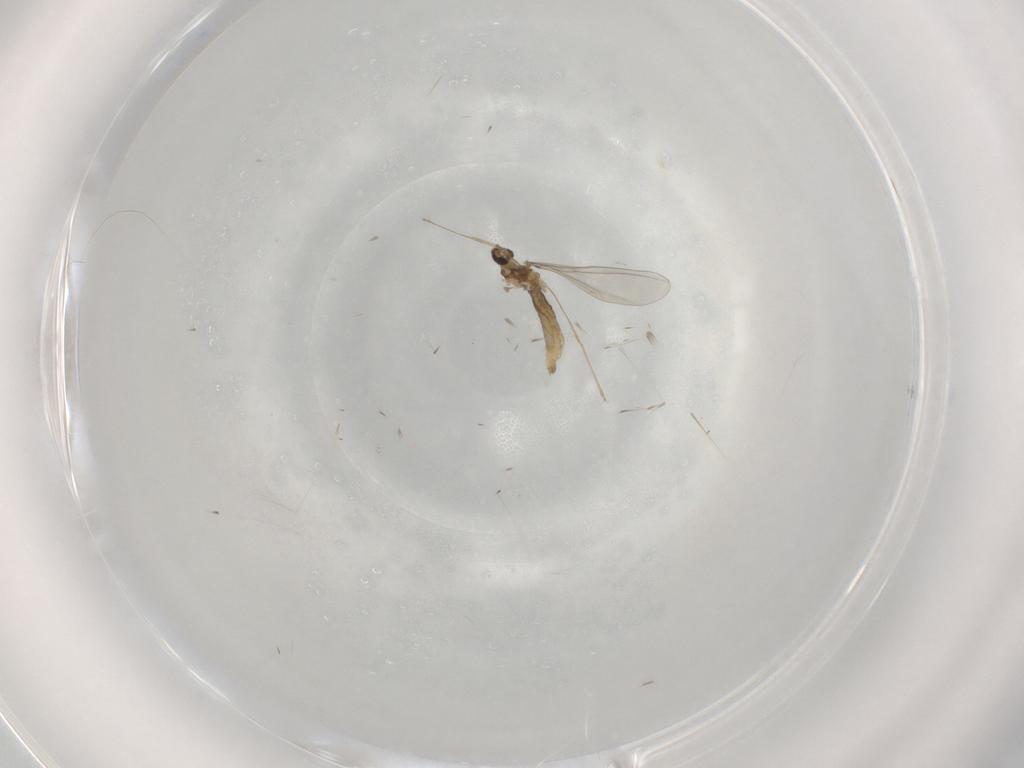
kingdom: Animalia
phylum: Arthropoda
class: Insecta
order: Diptera
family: Cecidomyiidae
